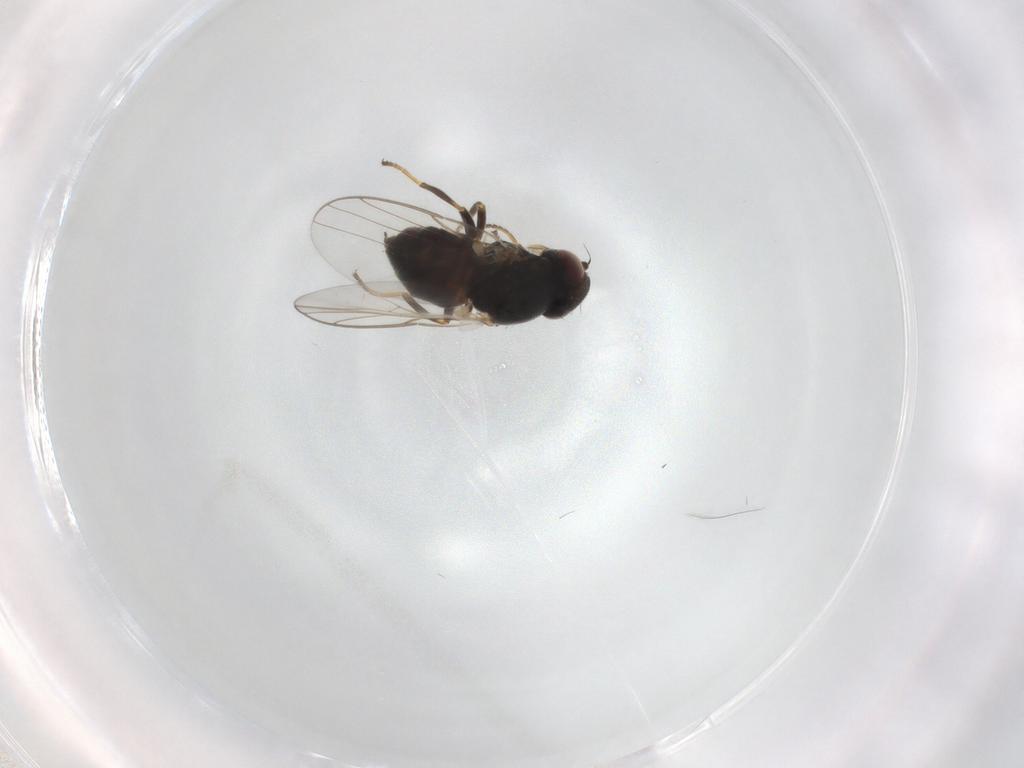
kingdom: Animalia
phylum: Arthropoda
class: Insecta
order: Diptera
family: Chloropidae
